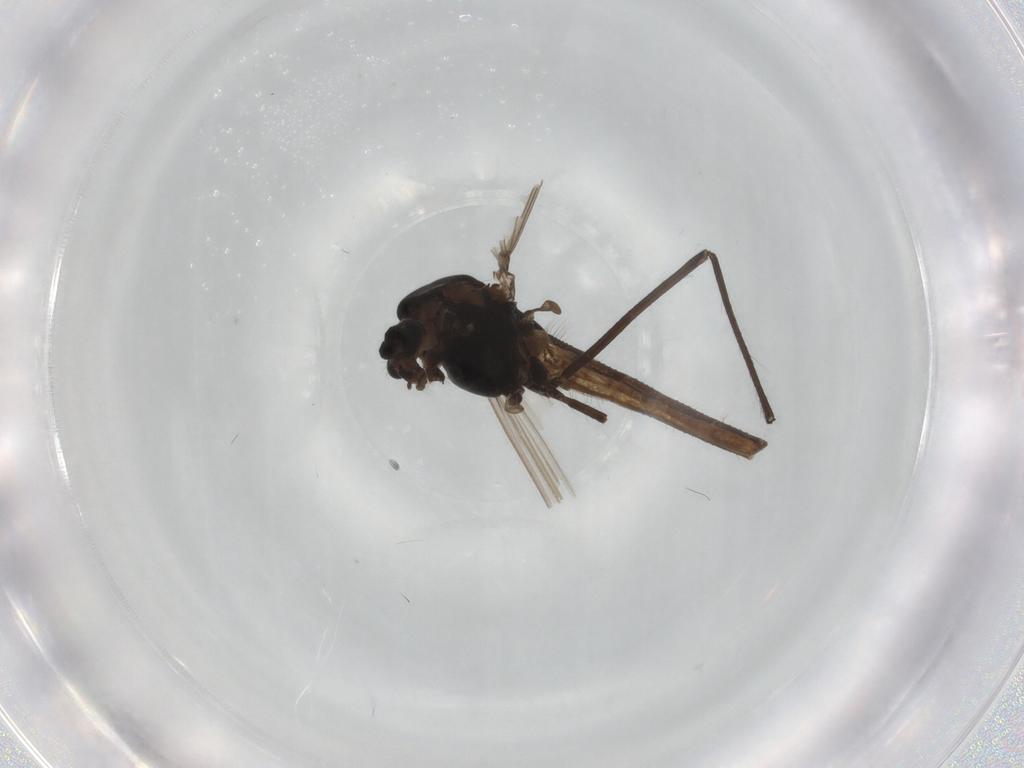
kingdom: Animalia
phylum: Arthropoda
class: Insecta
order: Diptera
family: Chironomidae
